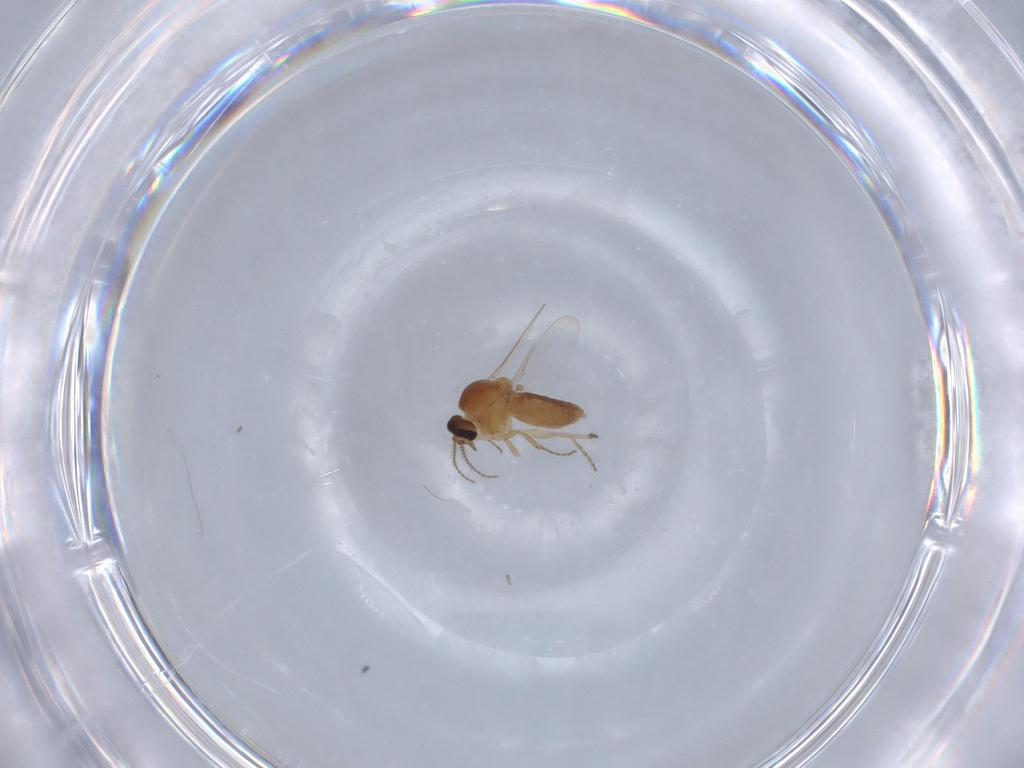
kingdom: Animalia
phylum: Arthropoda
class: Insecta
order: Diptera
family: Ceratopogonidae
